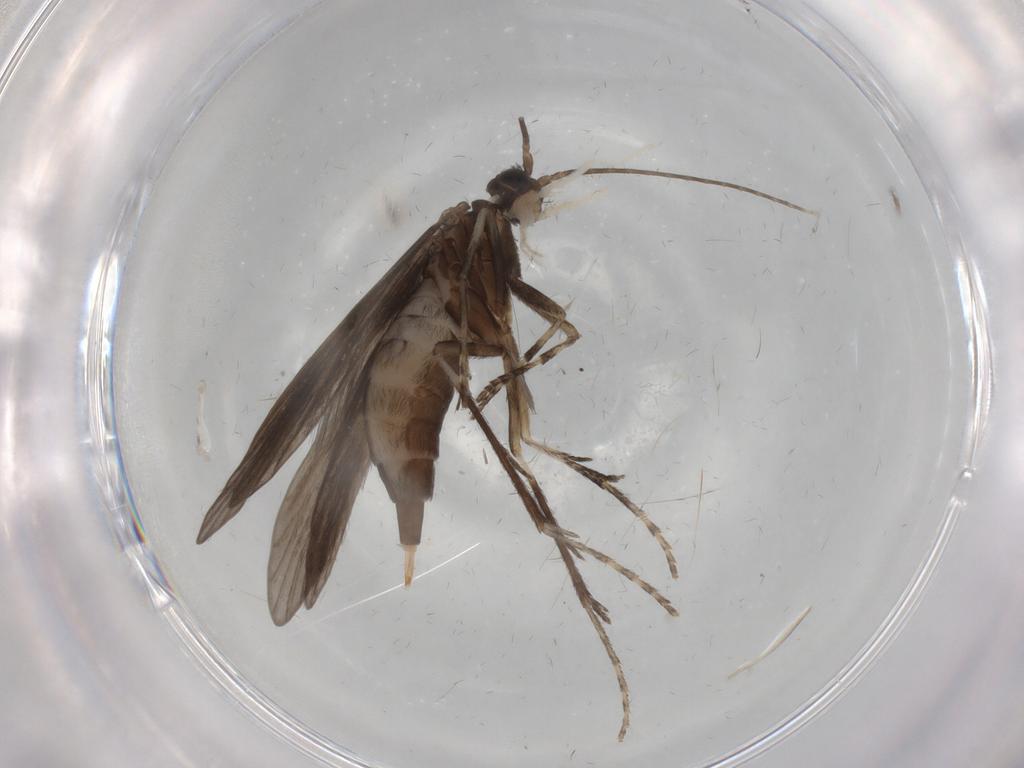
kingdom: Animalia
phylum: Arthropoda
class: Insecta
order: Trichoptera
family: Xiphocentronidae
